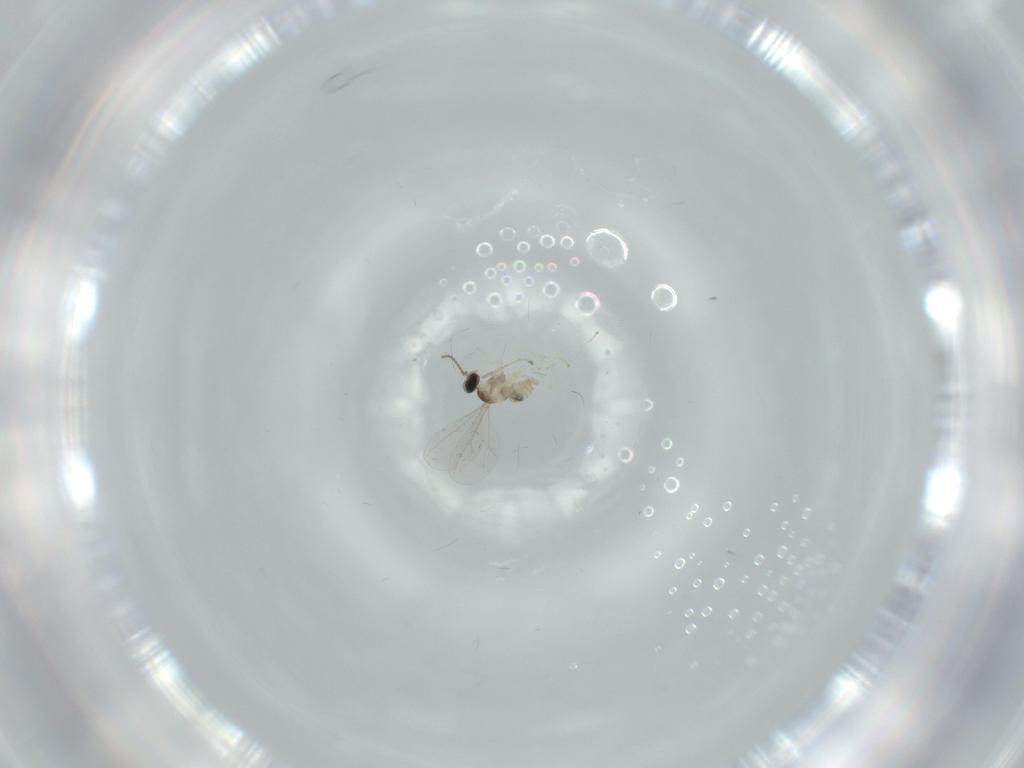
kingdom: Animalia
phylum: Arthropoda
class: Insecta
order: Diptera
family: Cecidomyiidae
